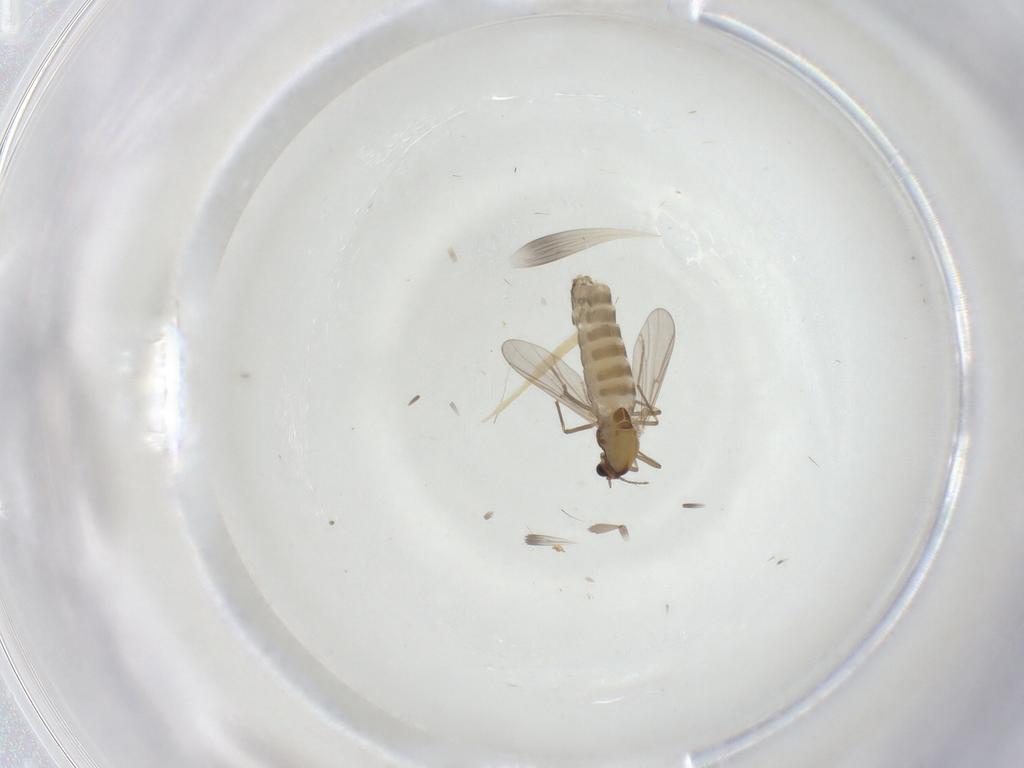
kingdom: Animalia
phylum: Arthropoda
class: Insecta
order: Diptera
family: Chironomidae
